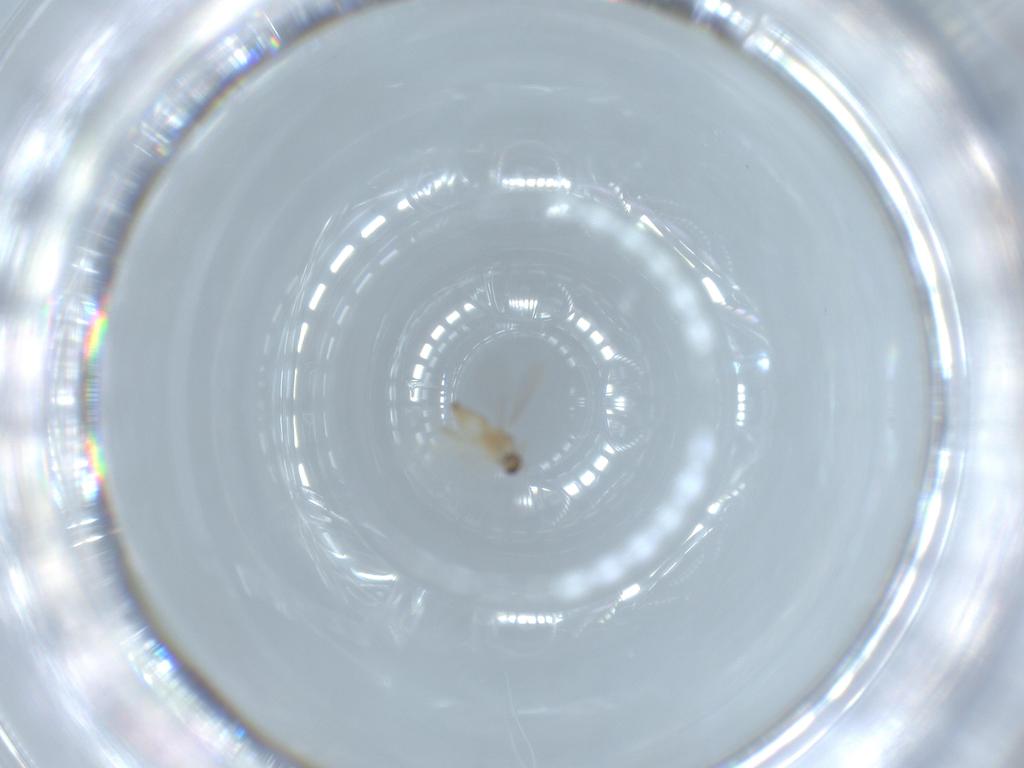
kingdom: Animalia
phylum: Arthropoda
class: Insecta
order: Diptera
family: Cecidomyiidae
